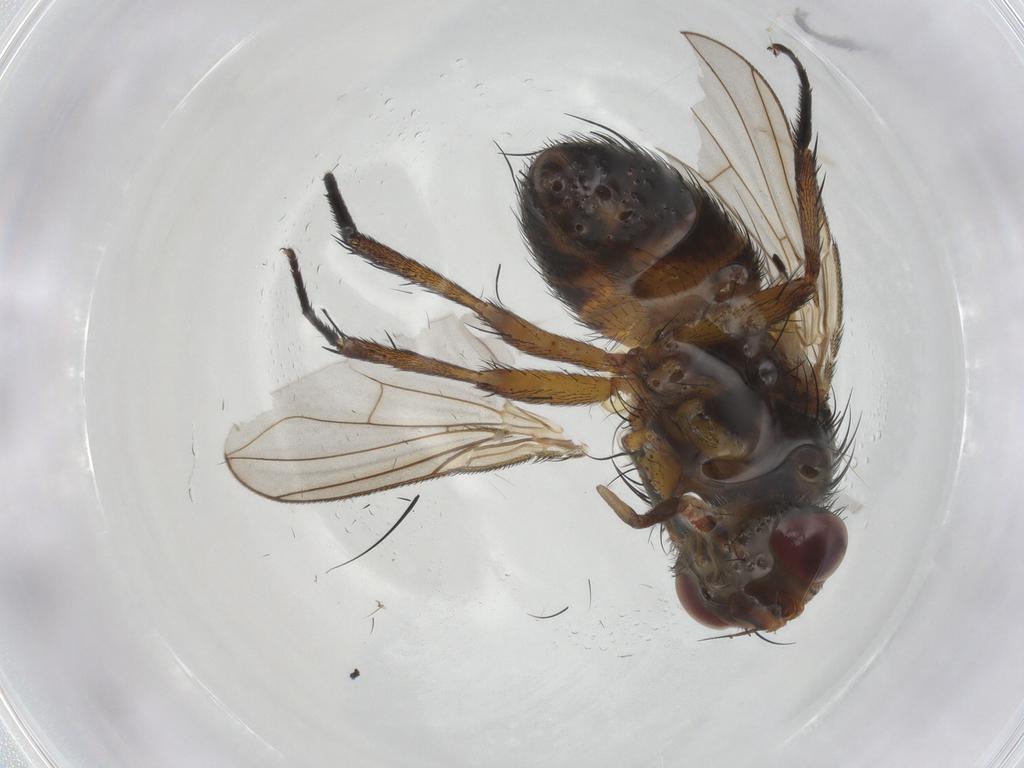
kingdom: Animalia
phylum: Arthropoda
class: Insecta
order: Diptera
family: Tachinidae
